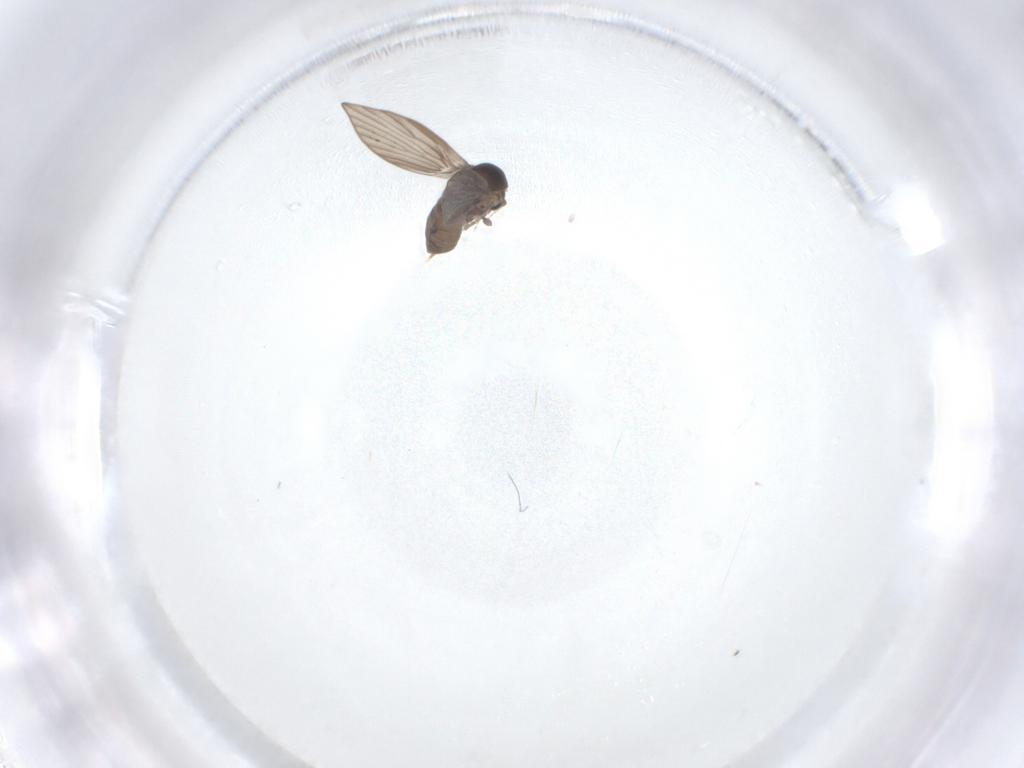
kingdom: Animalia
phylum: Arthropoda
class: Insecta
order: Diptera
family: Psychodidae
